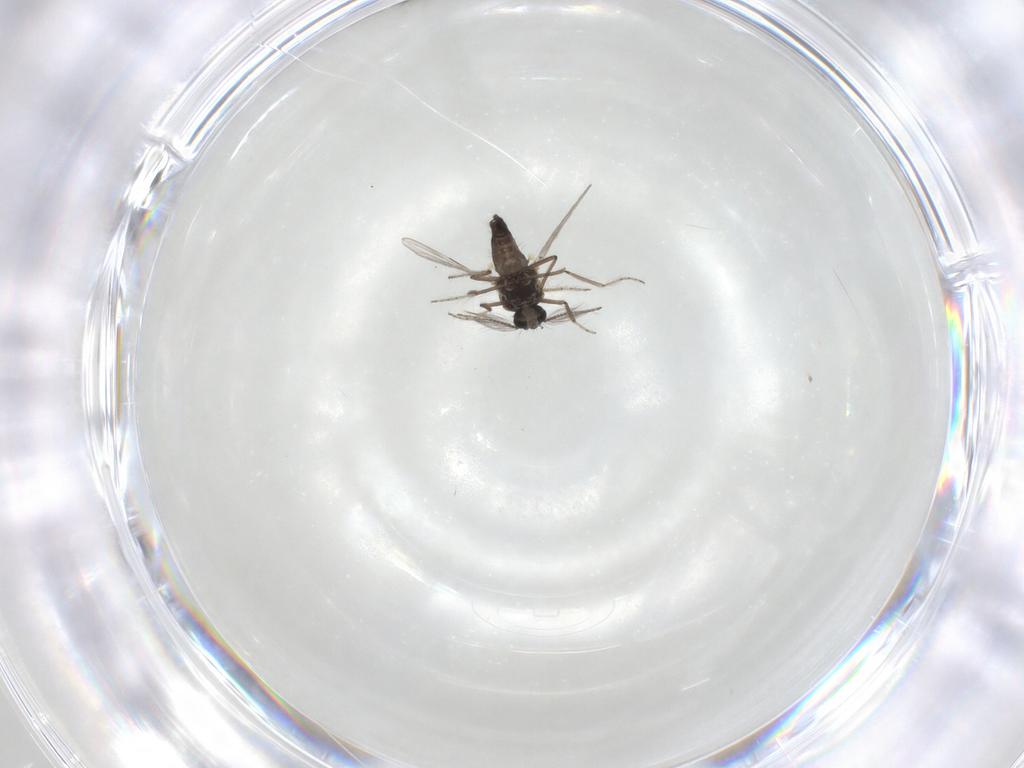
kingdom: Animalia
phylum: Arthropoda
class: Insecta
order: Diptera
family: Ceratopogonidae
